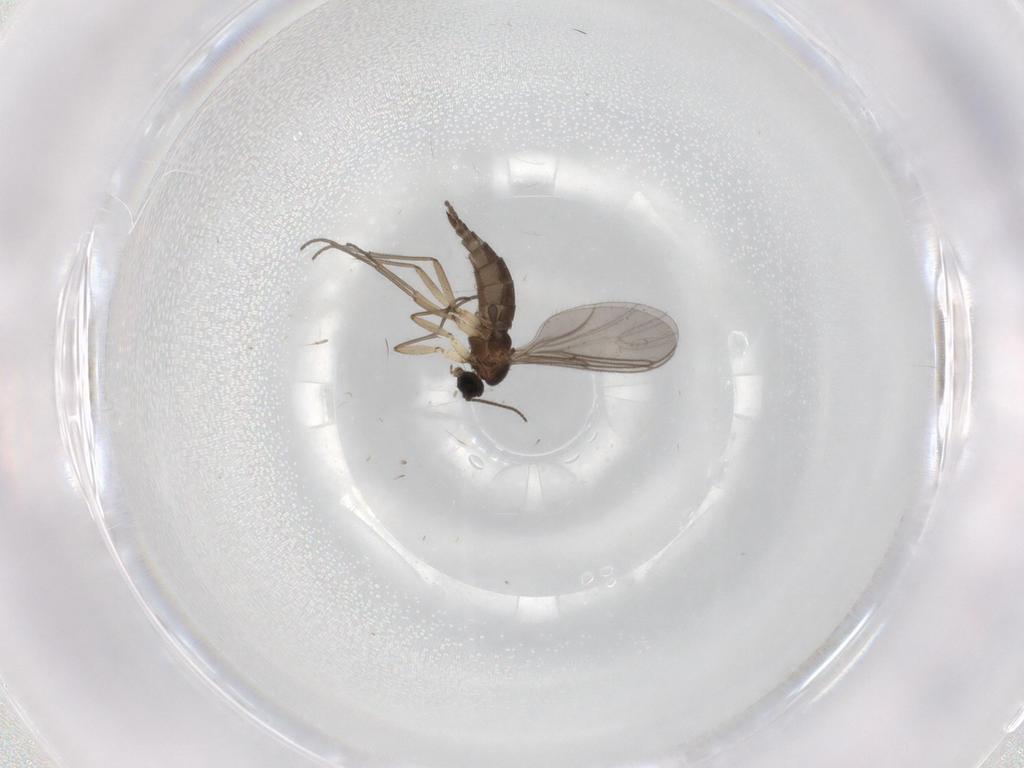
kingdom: Animalia
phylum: Arthropoda
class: Insecta
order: Diptera
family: Sciaridae
